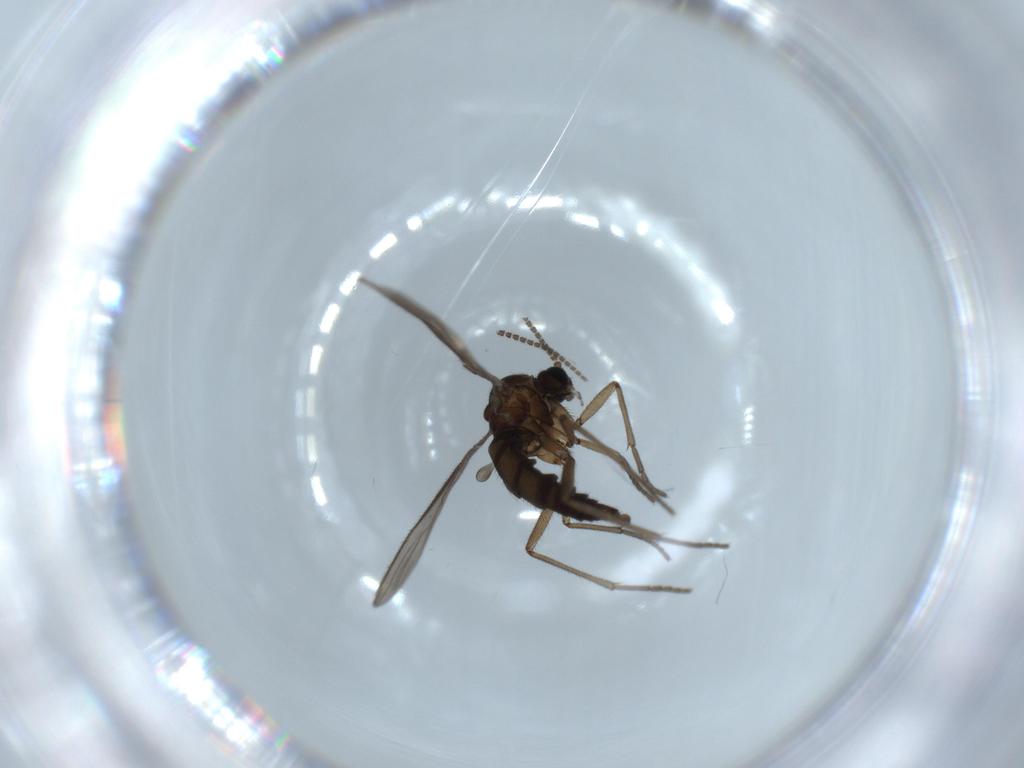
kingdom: Animalia
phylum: Arthropoda
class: Insecta
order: Diptera
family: Sciaridae
